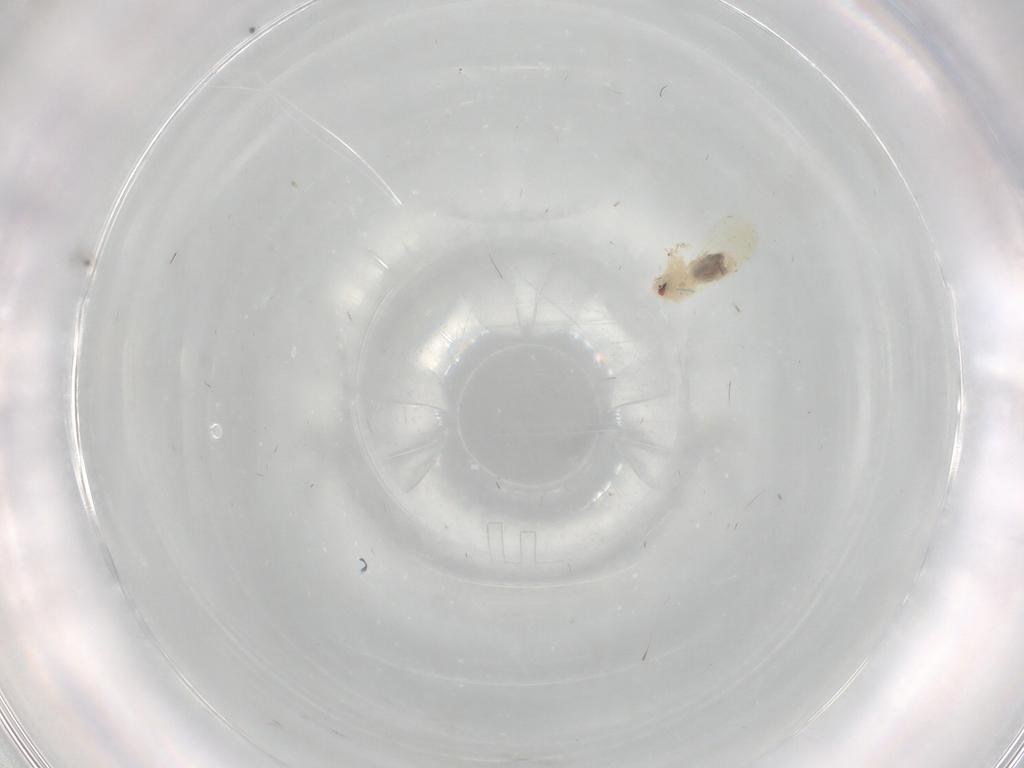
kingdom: Animalia
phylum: Arthropoda
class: Insecta
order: Hemiptera
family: Aleyrodidae
